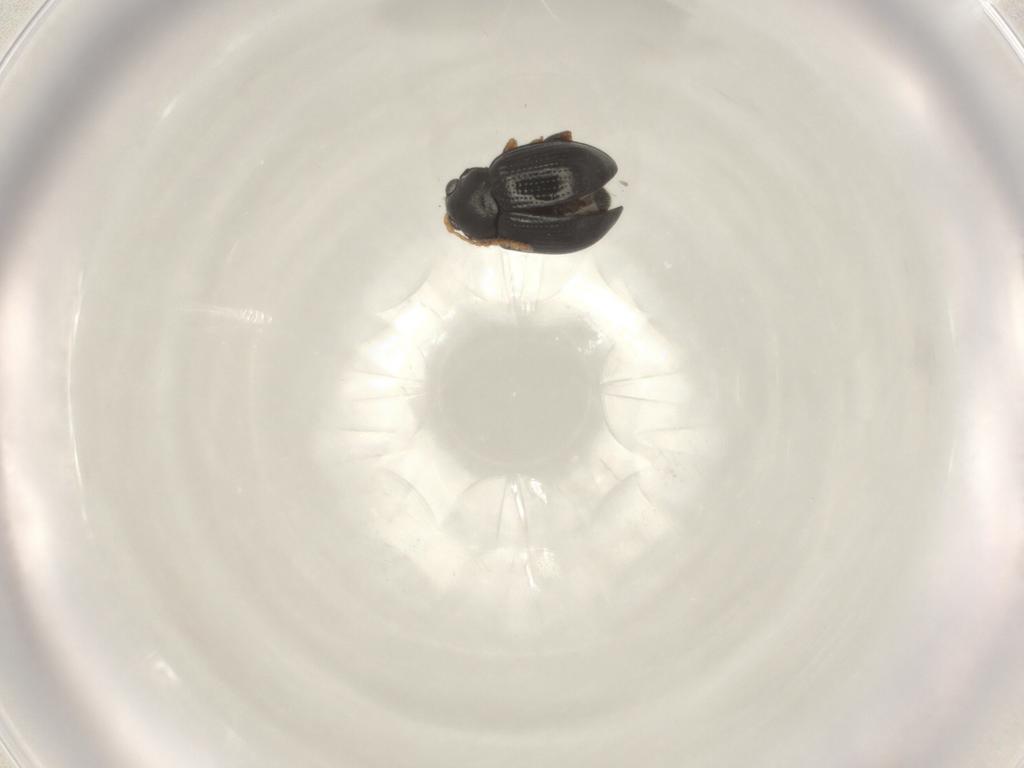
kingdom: Animalia
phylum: Arthropoda
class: Insecta
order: Coleoptera
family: Chrysomelidae
